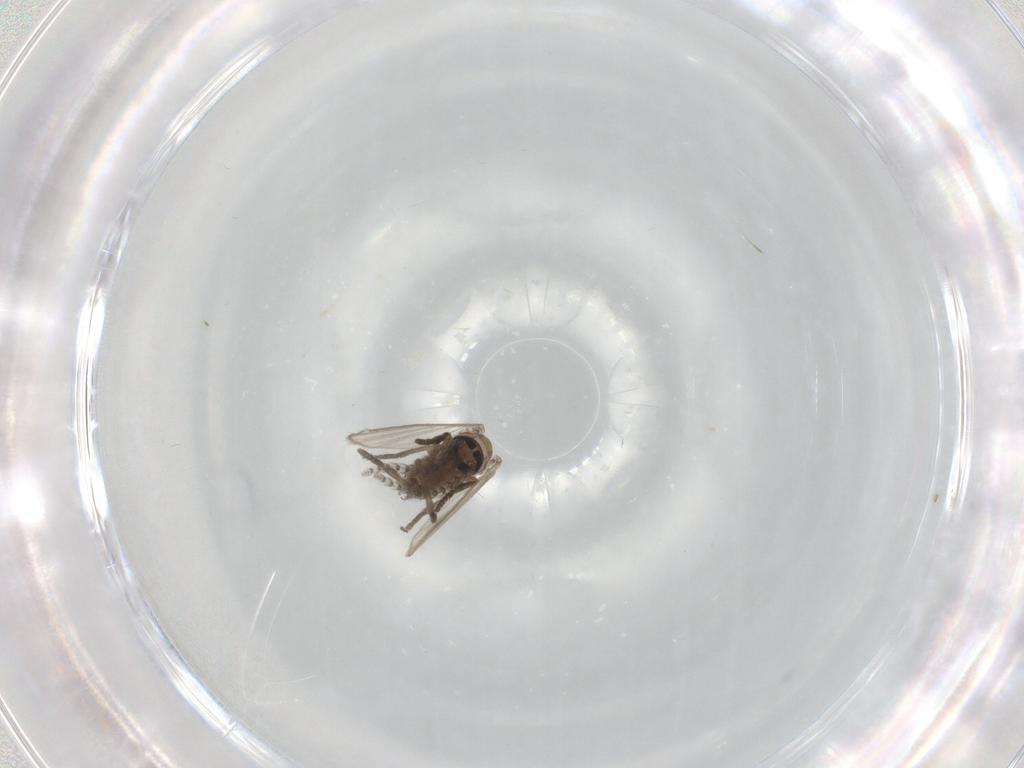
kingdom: Animalia
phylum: Arthropoda
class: Insecta
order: Diptera
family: Cecidomyiidae
